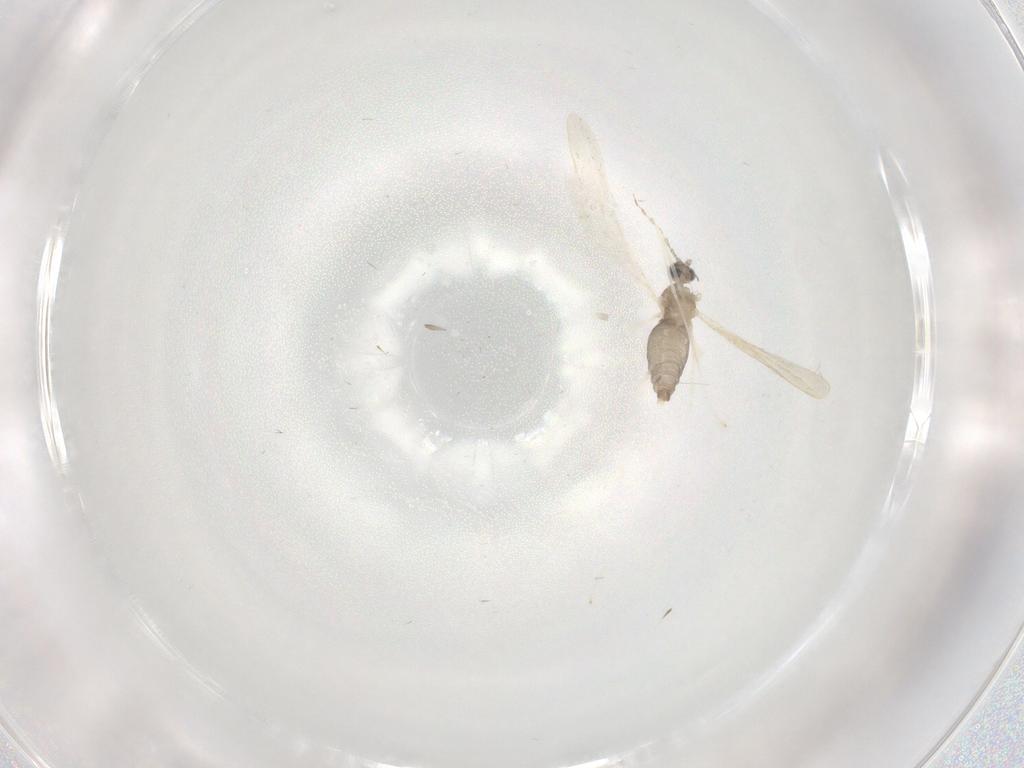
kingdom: Animalia
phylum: Arthropoda
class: Insecta
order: Diptera
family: Cecidomyiidae
